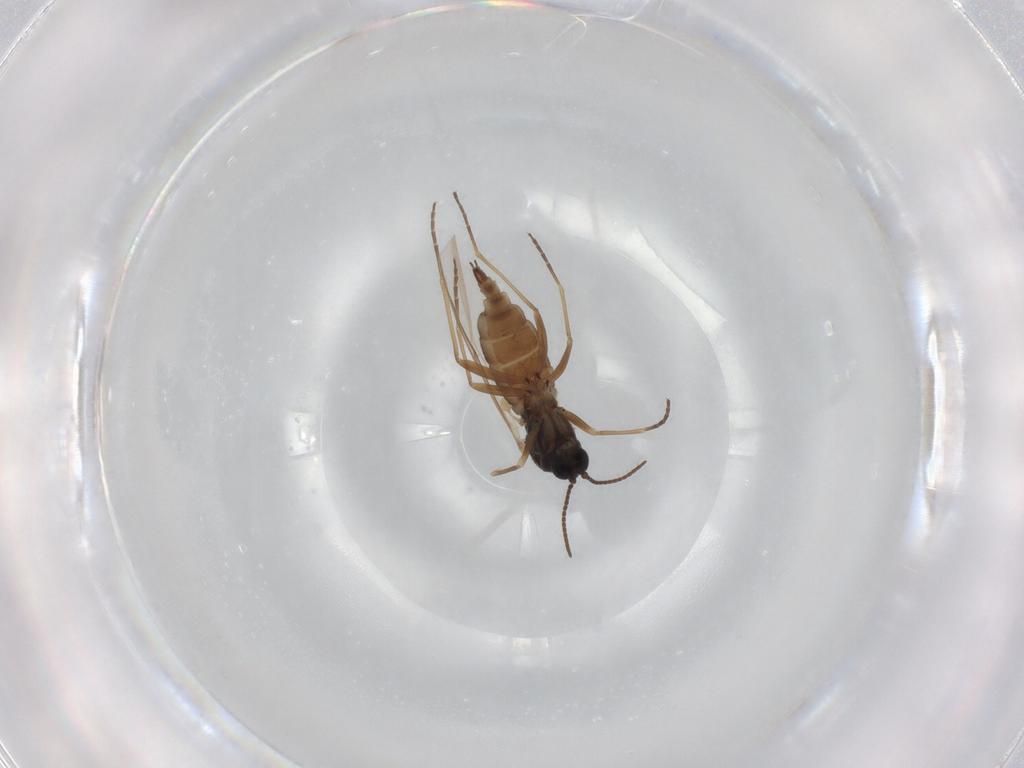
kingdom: Animalia
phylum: Arthropoda
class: Insecta
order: Diptera
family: Sciaridae
